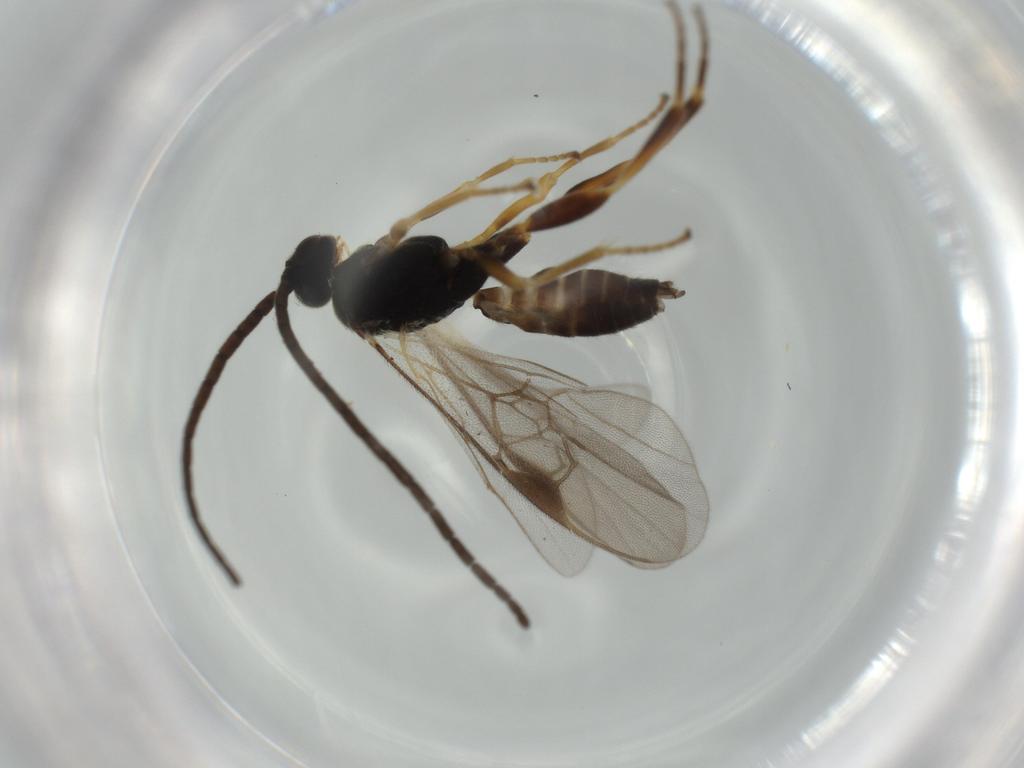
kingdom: Animalia
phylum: Arthropoda
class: Insecta
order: Hymenoptera
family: Braconidae
